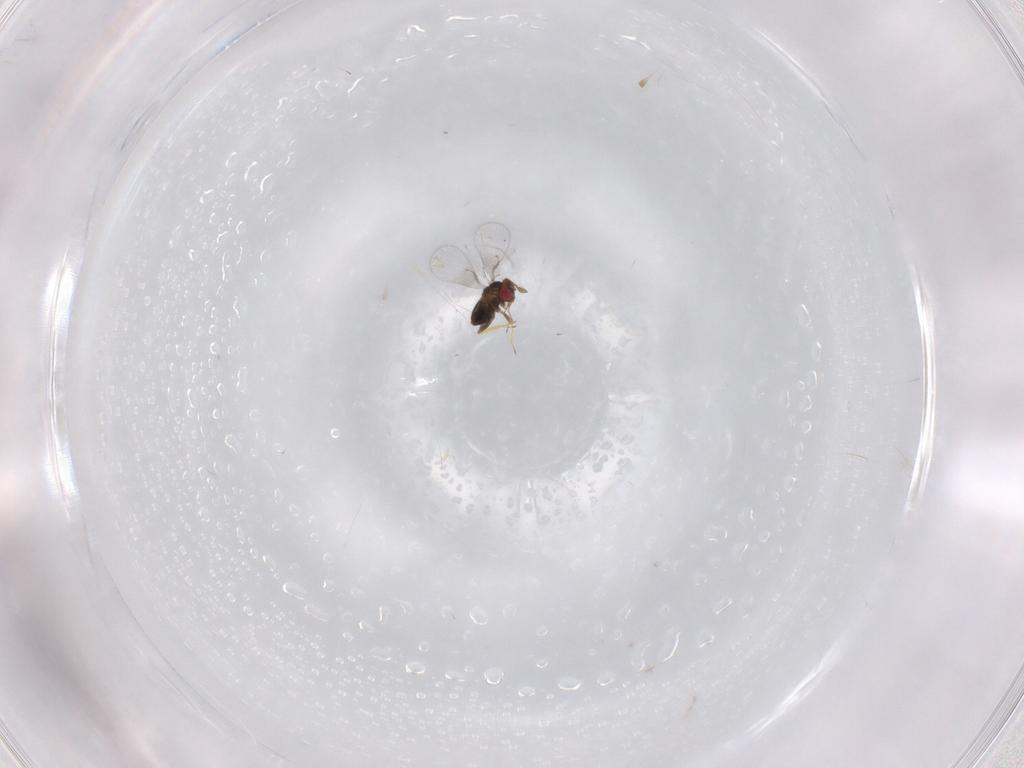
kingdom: Animalia
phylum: Arthropoda
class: Insecta
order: Hymenoptera
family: Trichogrammatidae
